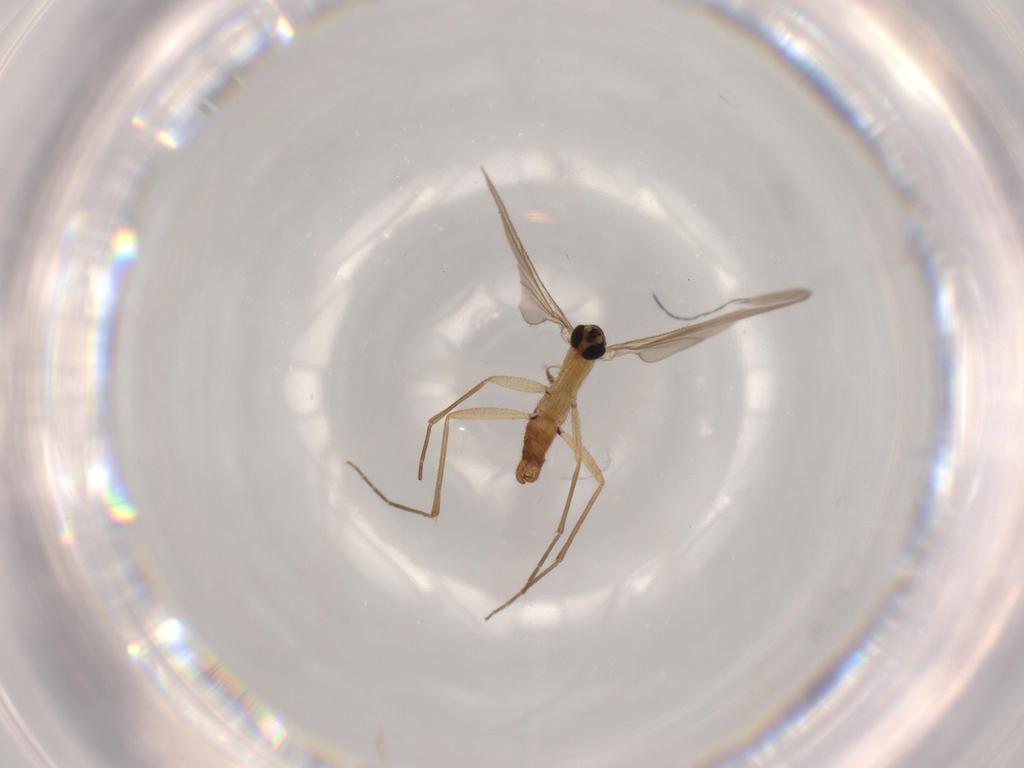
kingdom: Animalia
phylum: Arthropoda
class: Insecta
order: Diptera
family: Sciaridae
